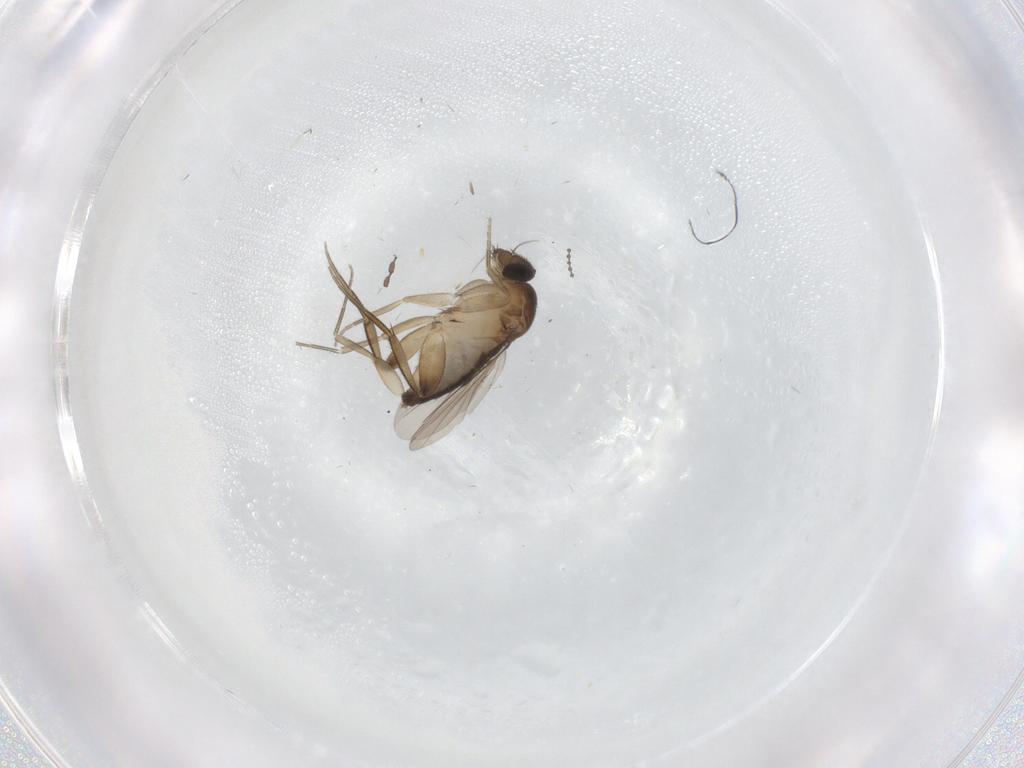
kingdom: Animalia
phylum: Arthropoda
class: Insecta
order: Diptera
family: Phoridae
